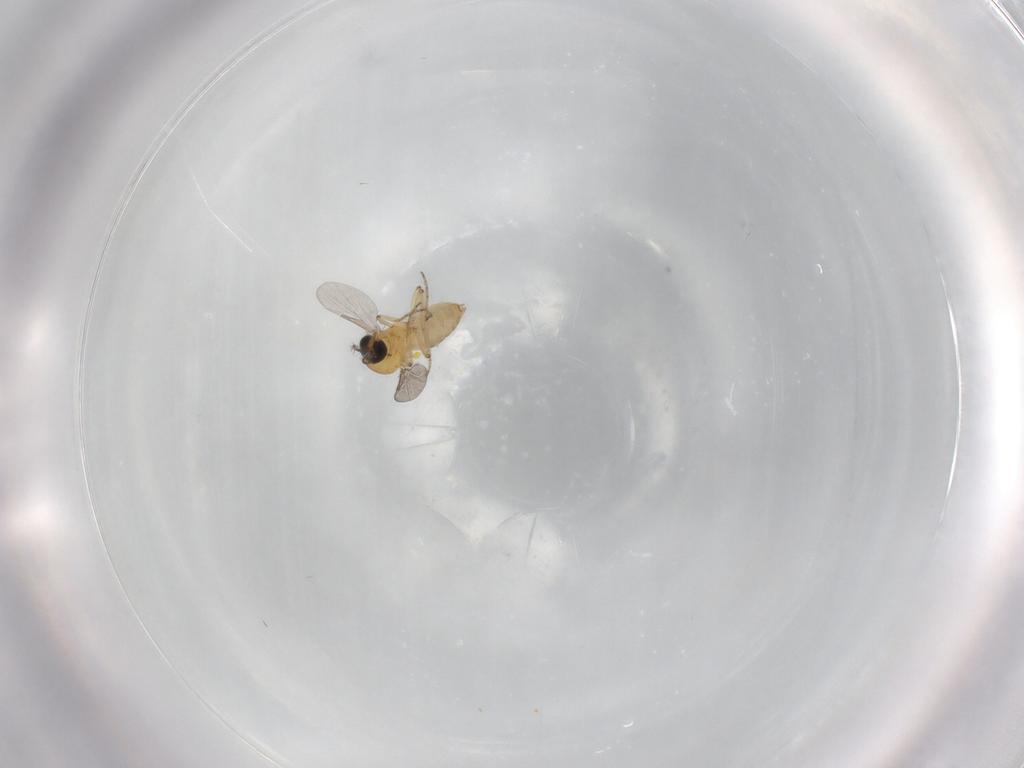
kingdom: Animalia
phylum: Arthropoda
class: Insecta
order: Diptera
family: Ceratopogonidae
